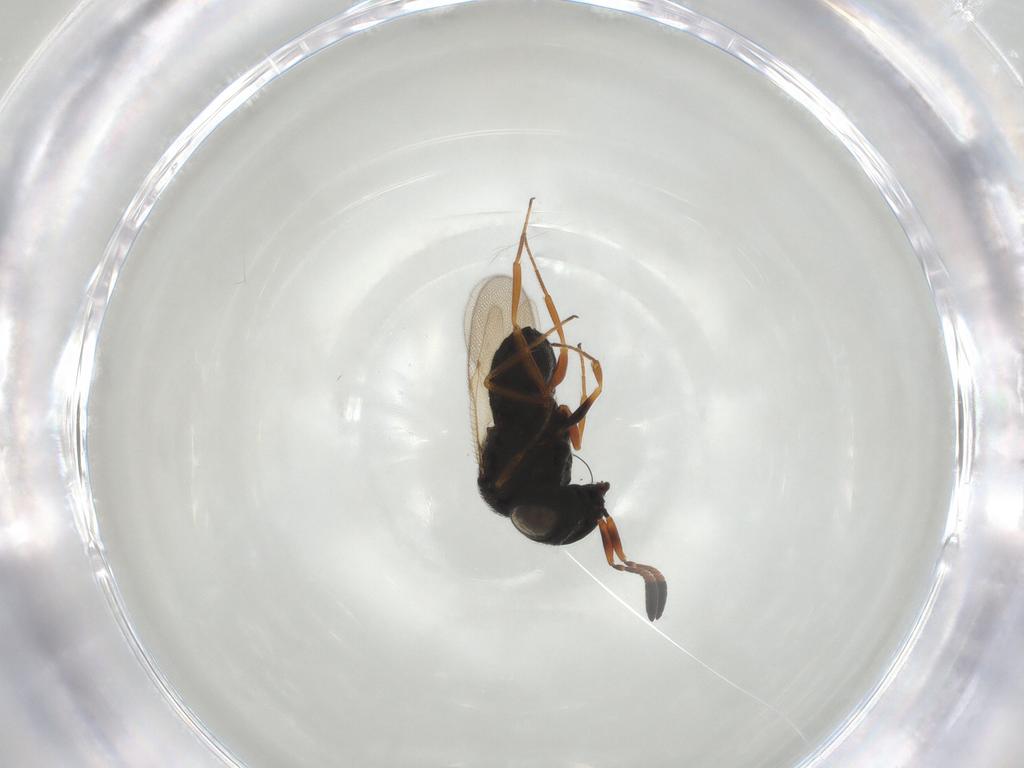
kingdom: Animalia
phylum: Arthropoda
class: Insecta
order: Hymenoptera
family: Scelionidae
